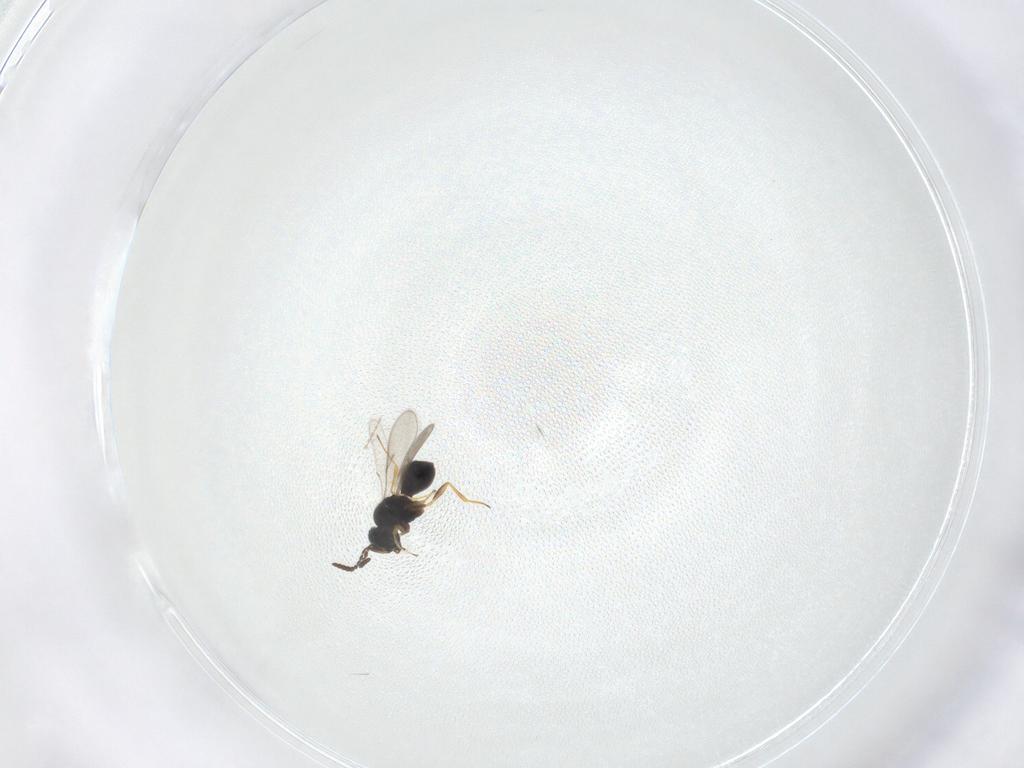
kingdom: Animalia
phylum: Arthropoda
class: Insecta
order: Hymenoptera
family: Scelionidae
